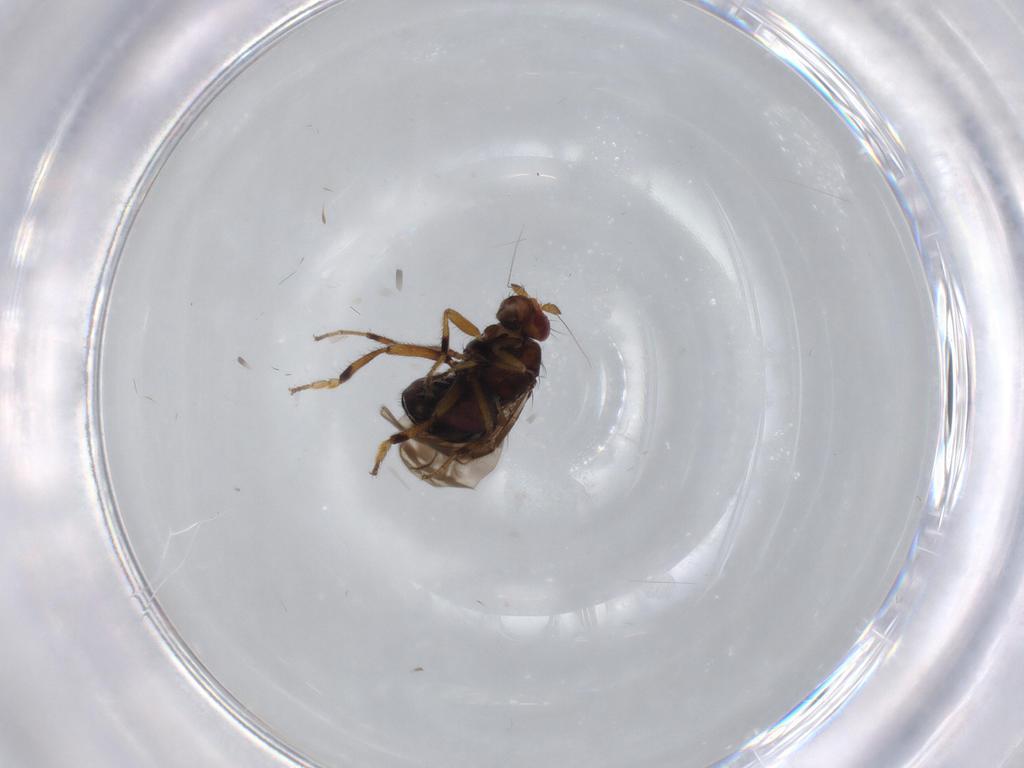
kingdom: Animalia
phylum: Arthropoda
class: Insecta
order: Diptera
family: Sphaeroceridae
